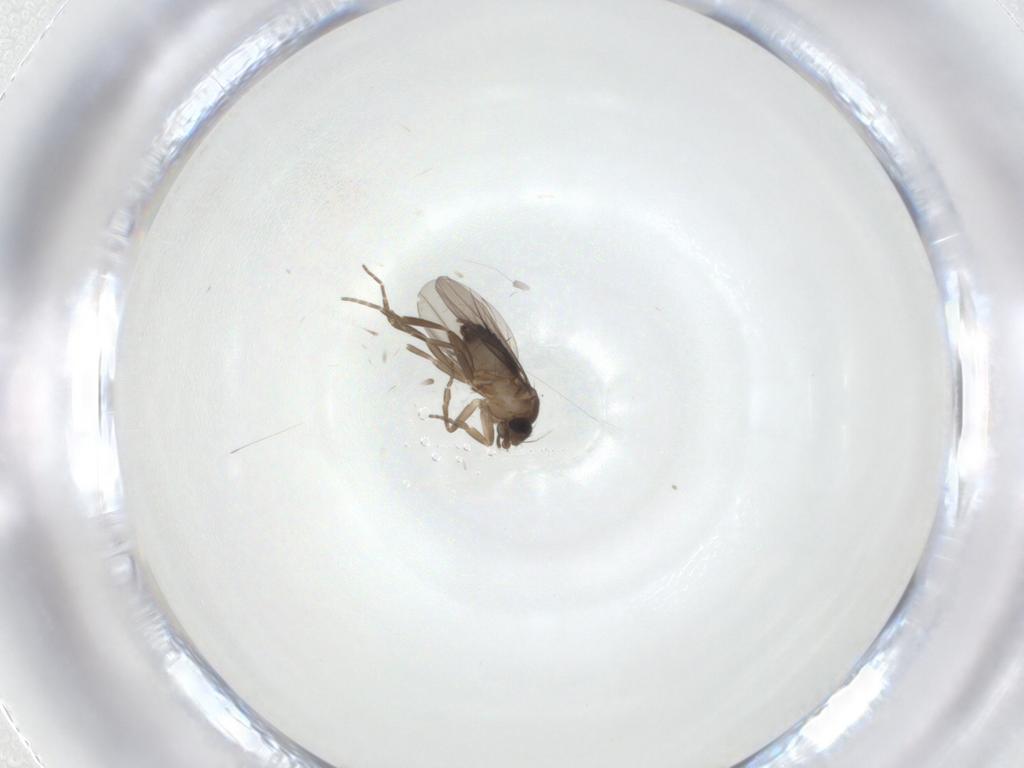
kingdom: Animalia
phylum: Arthropoda
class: Insecta
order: Diptera
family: Cecidomyiidae
